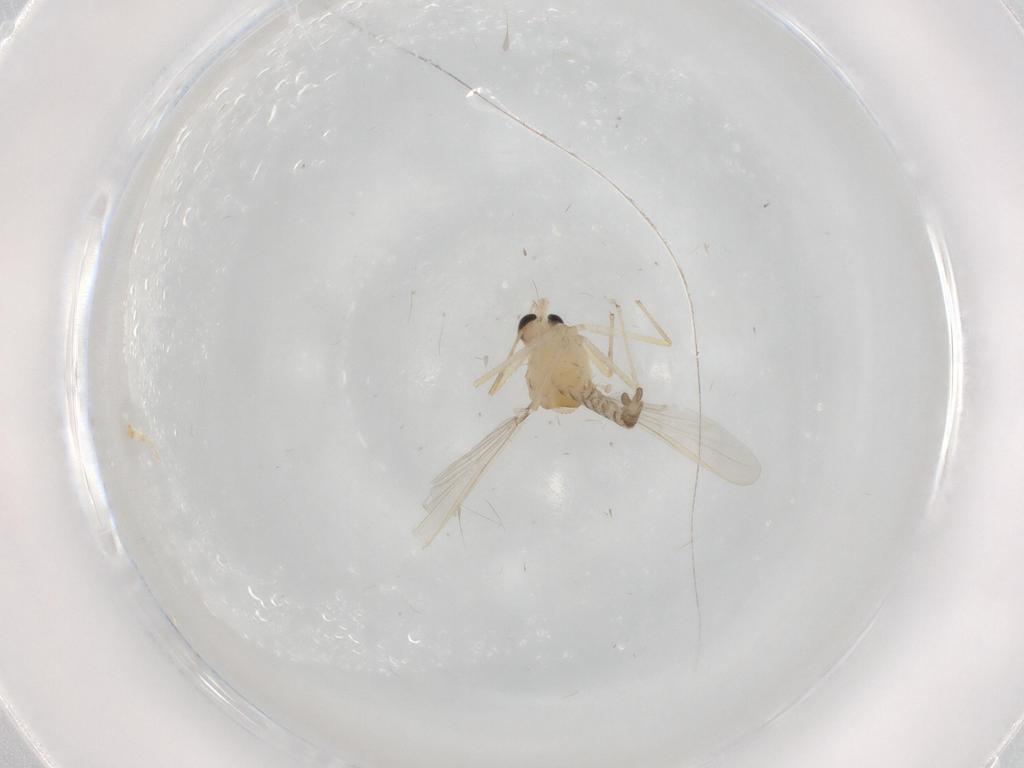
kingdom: Animalia
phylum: Arthropoda
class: Insecta
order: Diptera
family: Chironomidae
